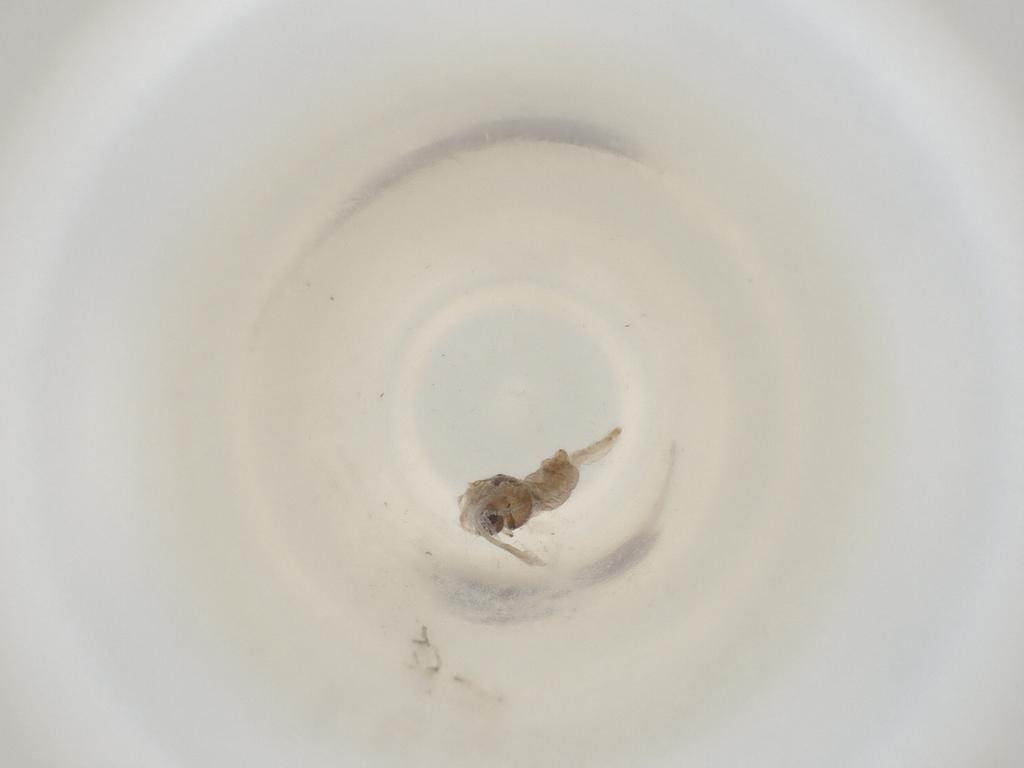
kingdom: Animalia
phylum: Arthropoda
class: Insecta
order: Diptera
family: Cecidomyiidae
